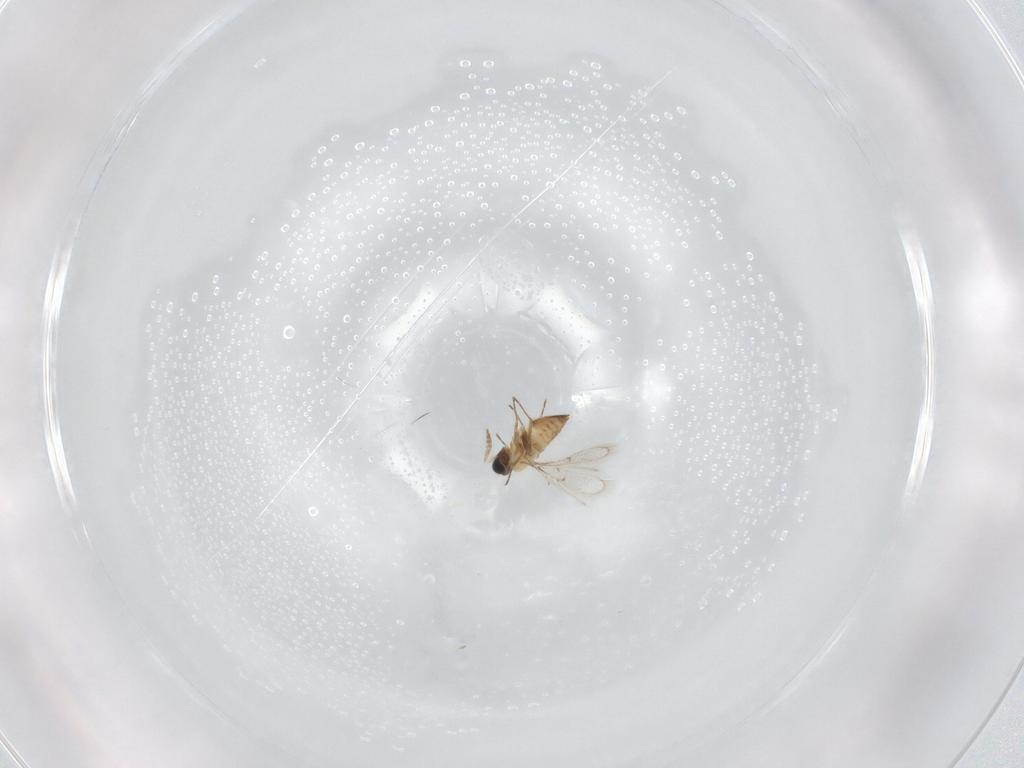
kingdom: Animalia
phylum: Arthropoda
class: Insecta
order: Hymenoptera
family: Trichogrammatidae
